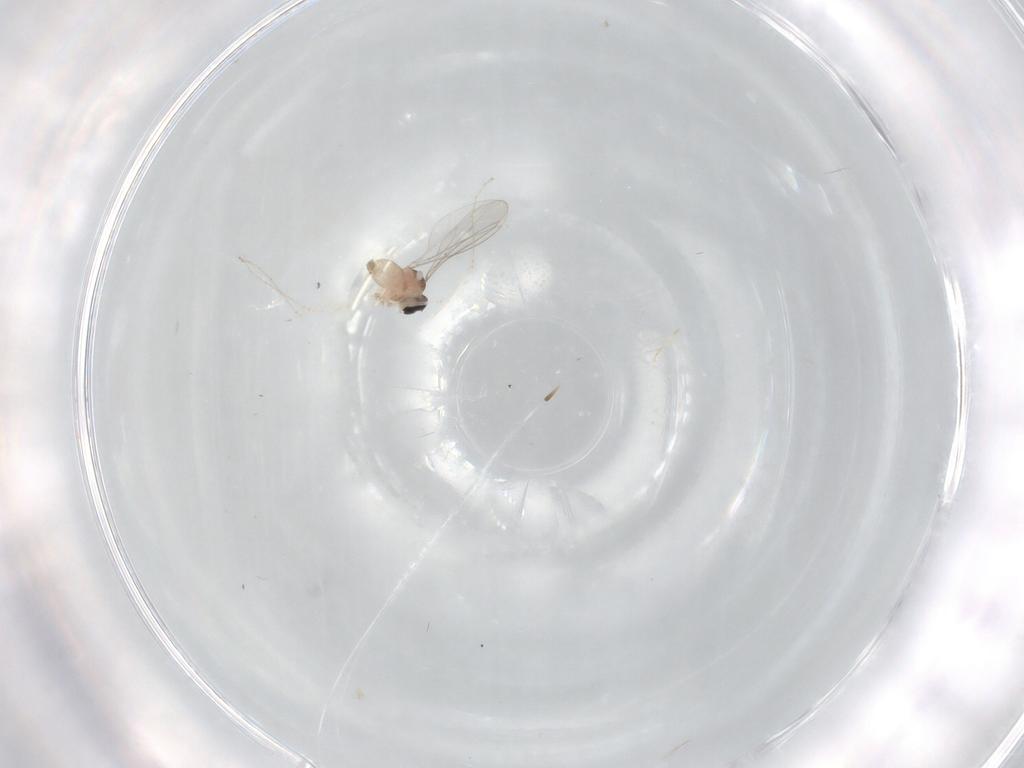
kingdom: Animalia
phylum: Arthropoda
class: Insecta
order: Diptera
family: Cecidomyiidae
